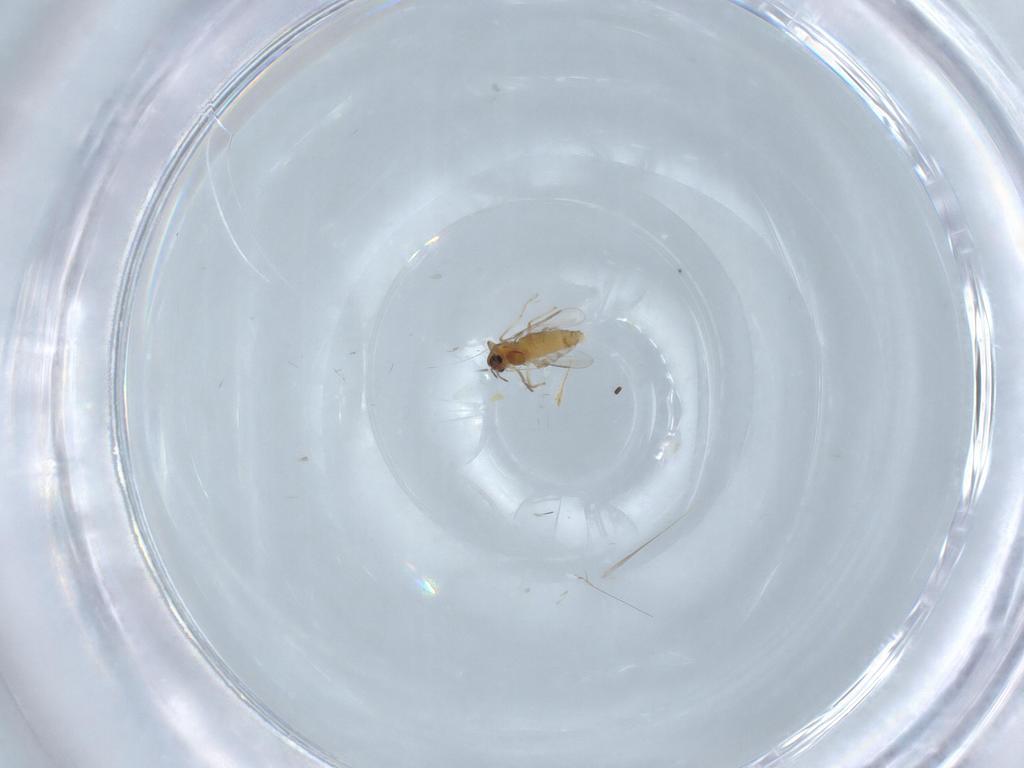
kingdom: Animalia
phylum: Arthropoda
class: Insecta
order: Diptera
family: Chironomidae
